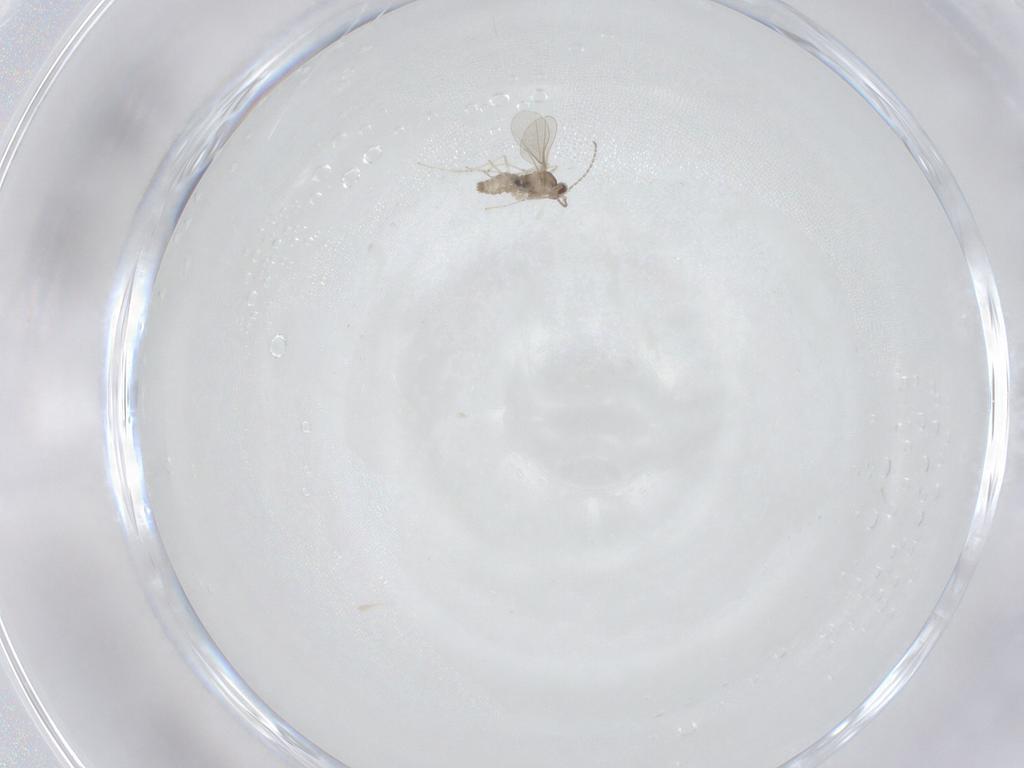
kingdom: Animalia
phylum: Arthropoda
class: Insecta
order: Diptera
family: Cecidomyiidae
